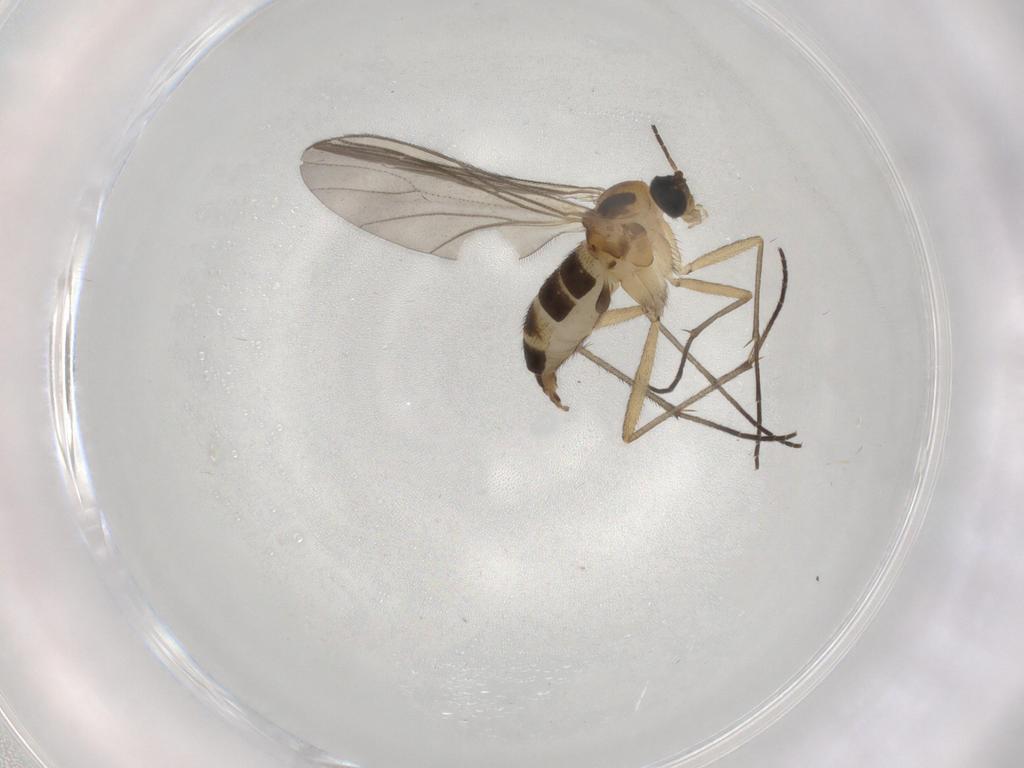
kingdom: Animalia
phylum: Arthropoda
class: Insecta
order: Diptera
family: Sciaridae
